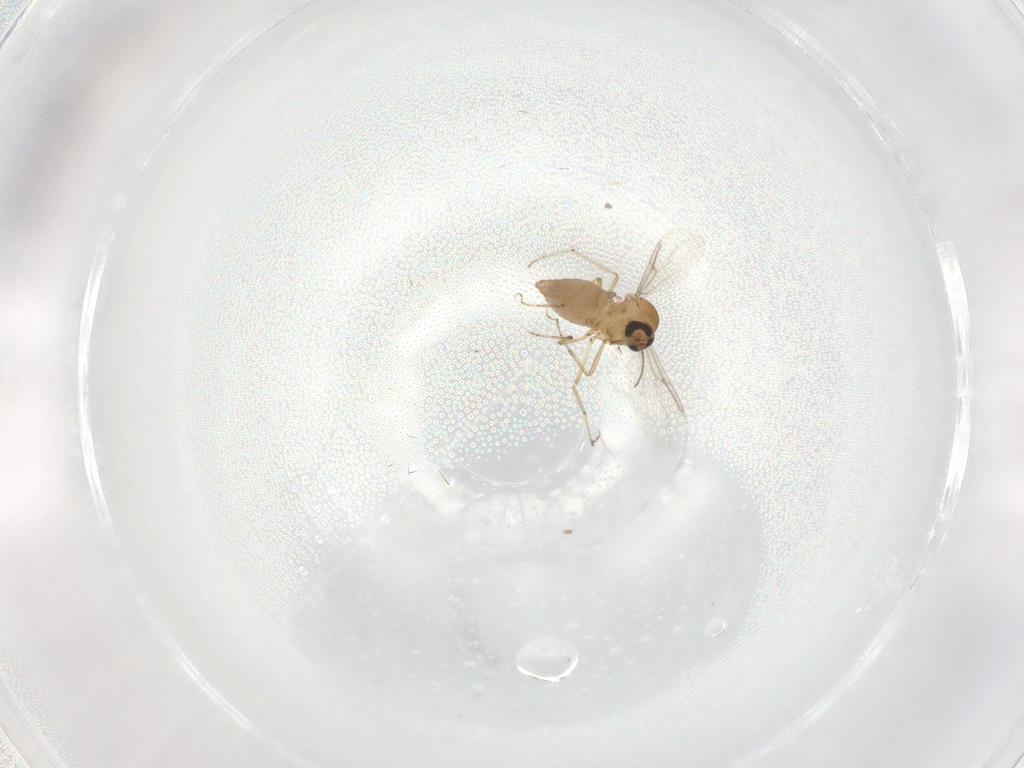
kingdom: Animalia
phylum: Arthropoda
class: Insecta
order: Diptera
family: Ceratopogonidae
